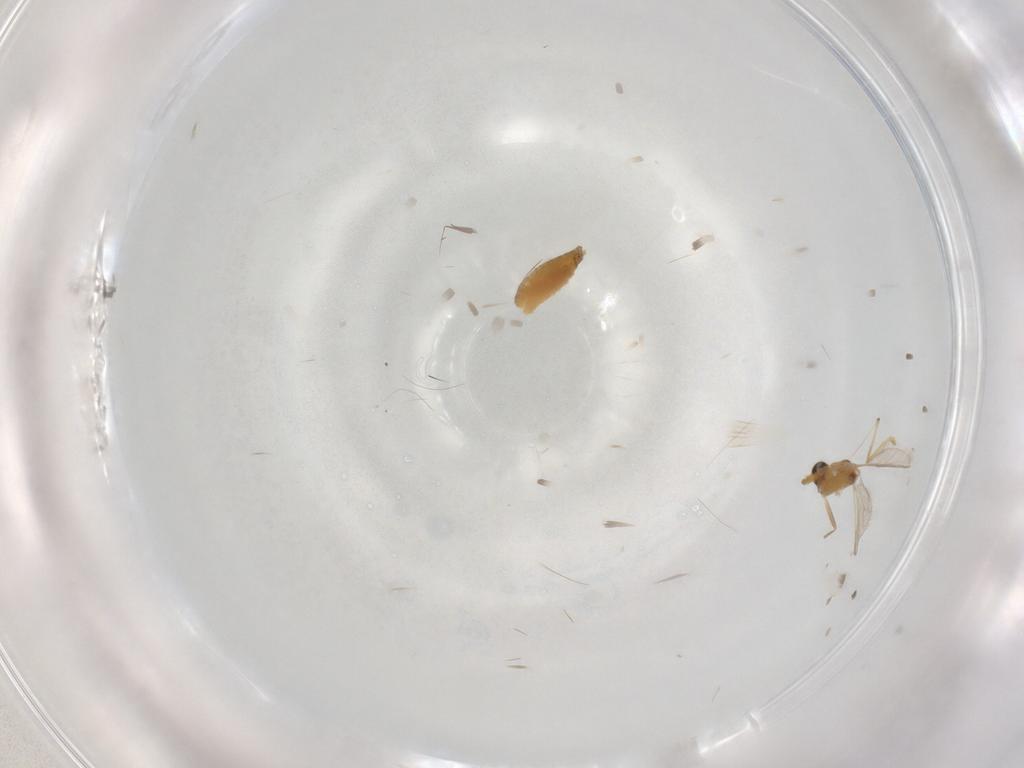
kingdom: Animalia
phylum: Arthropoda
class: Insecta
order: Diptera
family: Chironomidae
